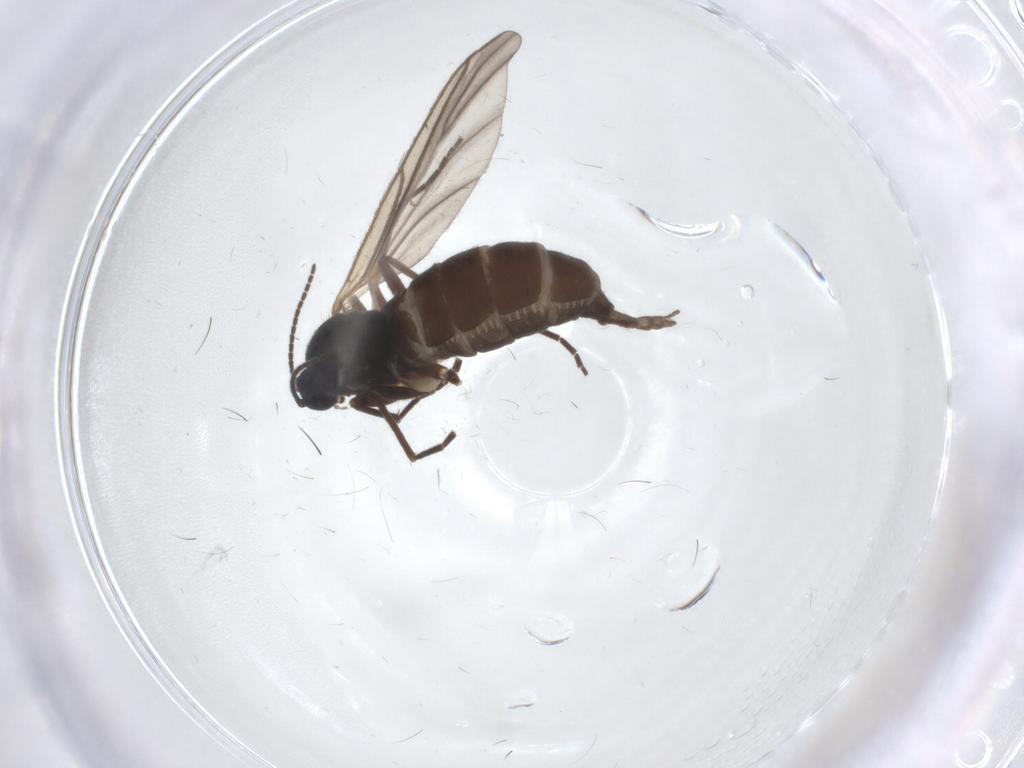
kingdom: Animalia
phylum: Arthropoda
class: Insecta
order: Diptera
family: Sciaridae
